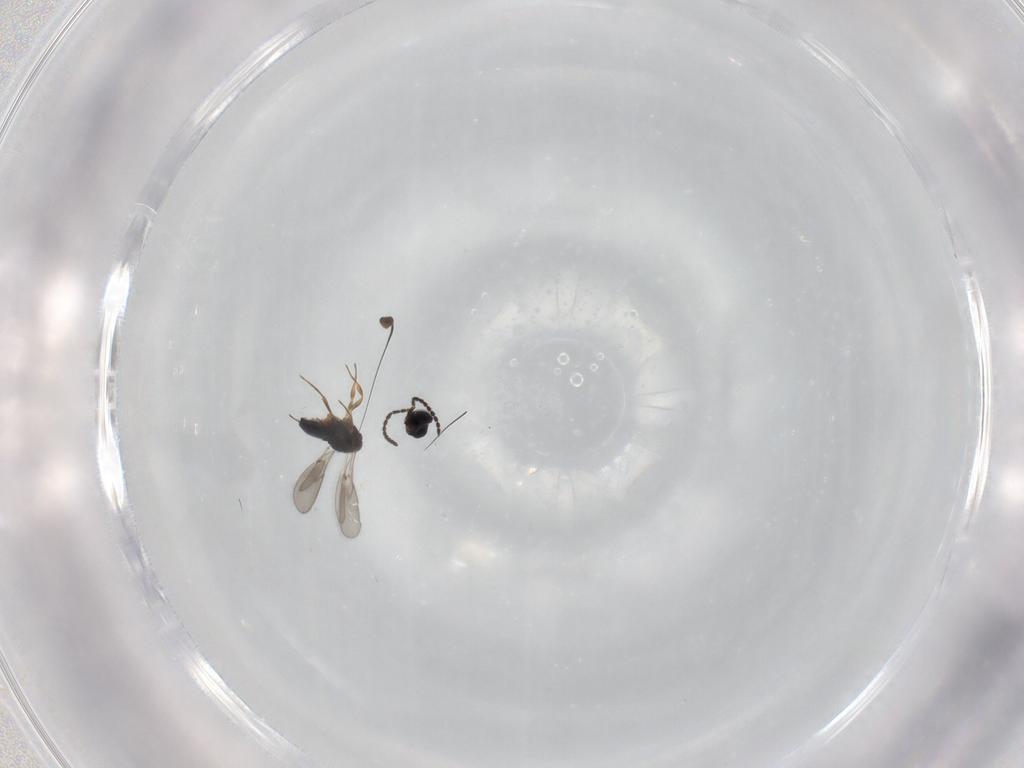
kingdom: Animalia
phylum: Arthropoda
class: Insecta
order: Hymenoptera
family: Scelionidae
